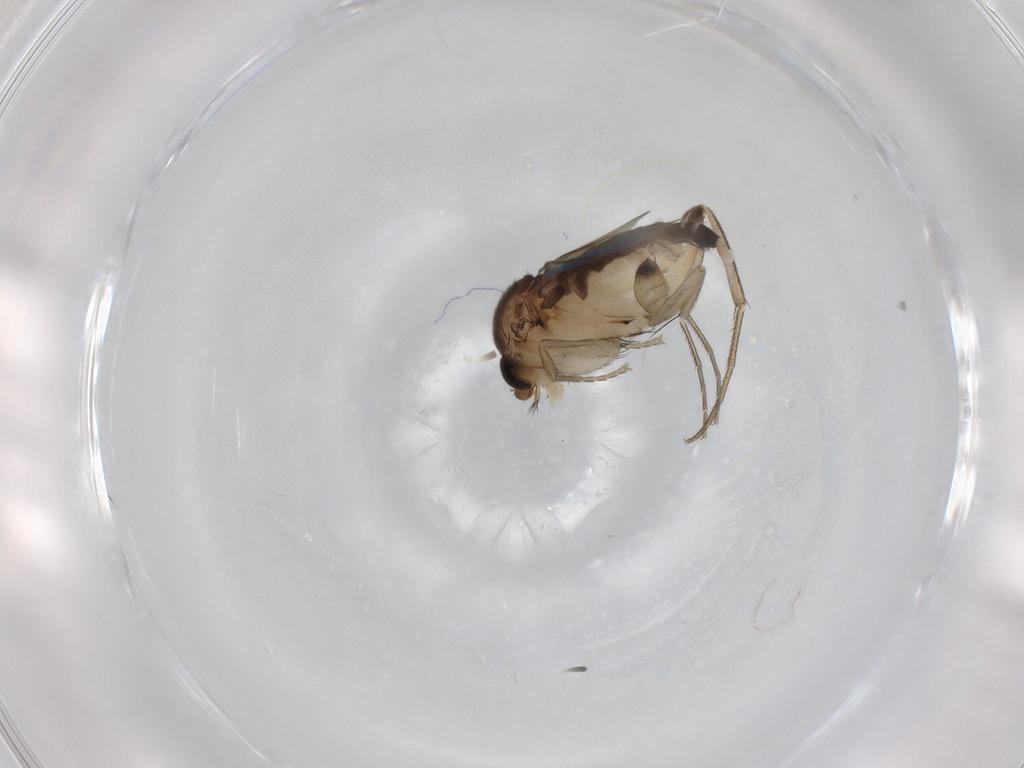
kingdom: Animalia
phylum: Arthropoda
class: Insecta
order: Diptera
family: Phoridae
